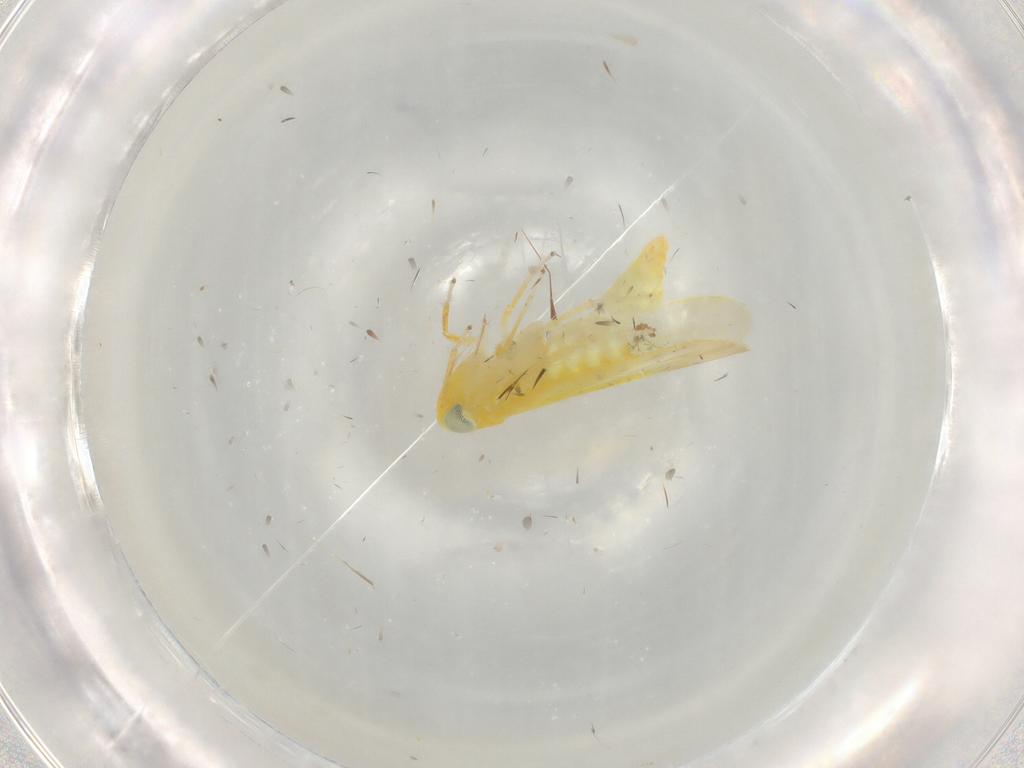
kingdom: Animalia
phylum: Arthropoda
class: Insecta
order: Hemiptera
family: Cicadellidae
